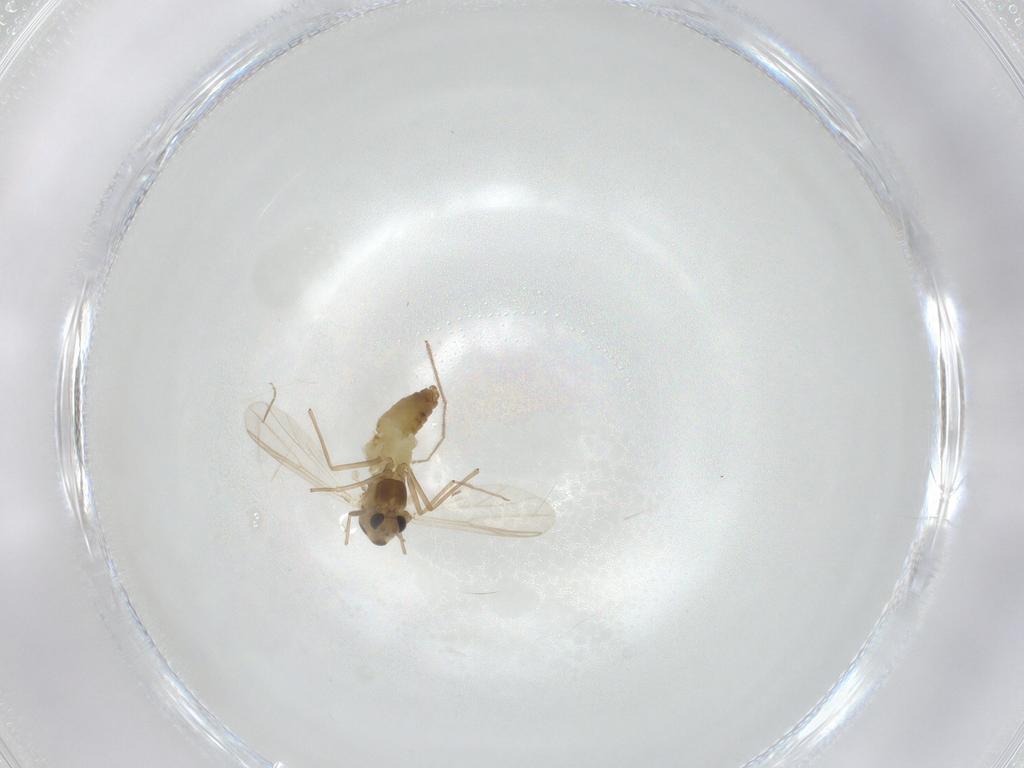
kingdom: Animalia
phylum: Arthropoda
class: Insecta
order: Diptera
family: Chironomidae
